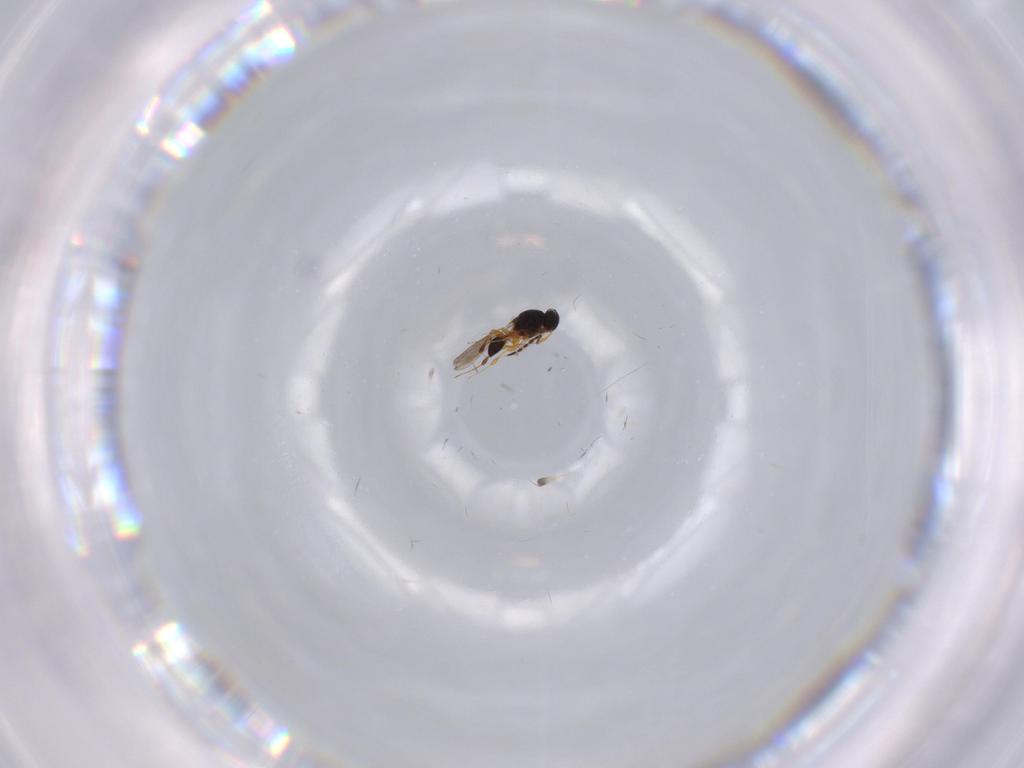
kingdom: Animalia
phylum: Arthropoda
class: Insecta
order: Hymenoptera
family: Platygastridae
